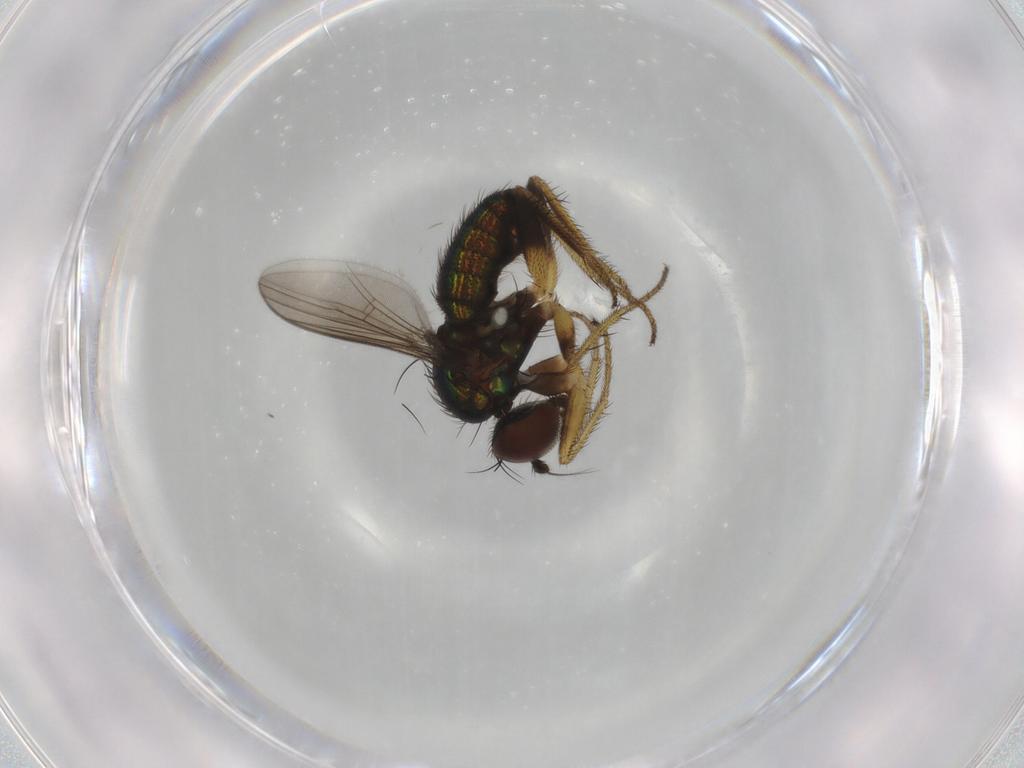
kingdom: Animalia
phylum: Arthropoda
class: Insecta
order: Diptera
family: Dolichopodidae
